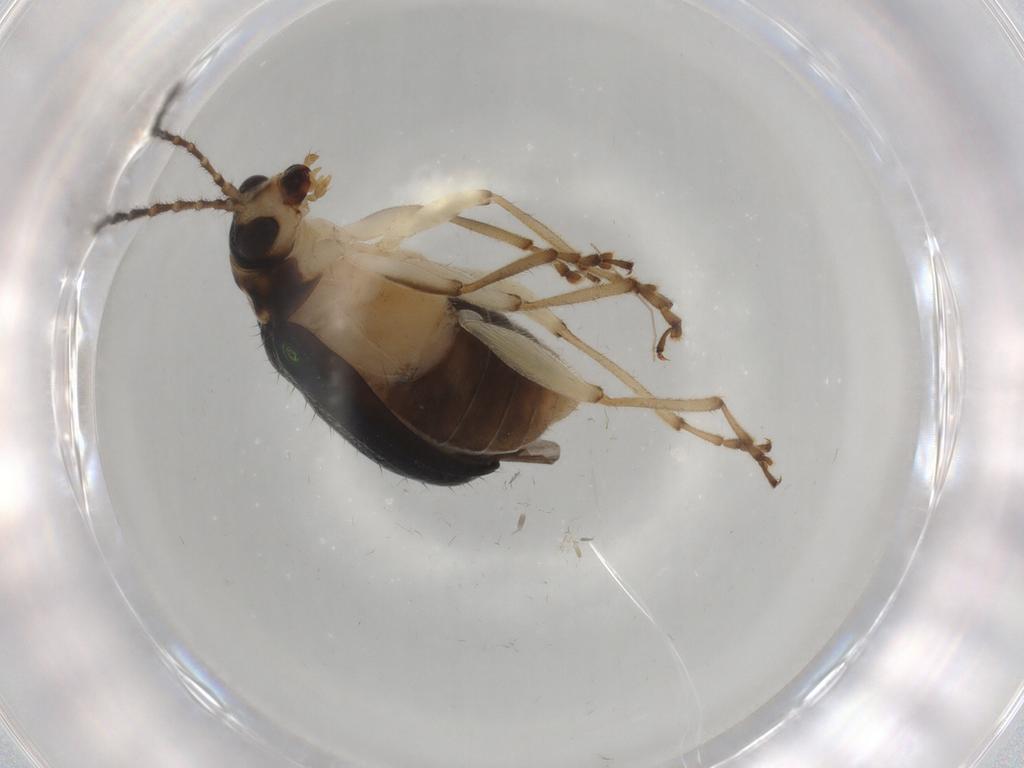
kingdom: Animalia
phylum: Arthropoda
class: Insecta
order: Coleoptera
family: Chrysomelidae
